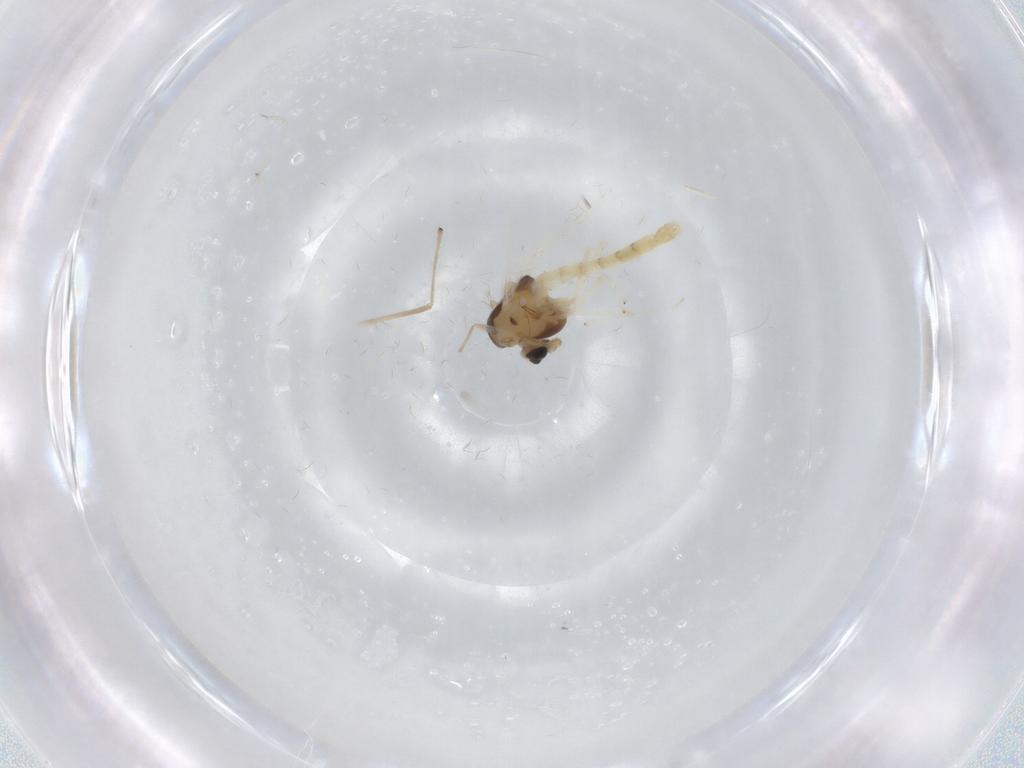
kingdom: Animalia
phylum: Arthropoda
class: Insecta
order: Diptera
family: Chironomidae
